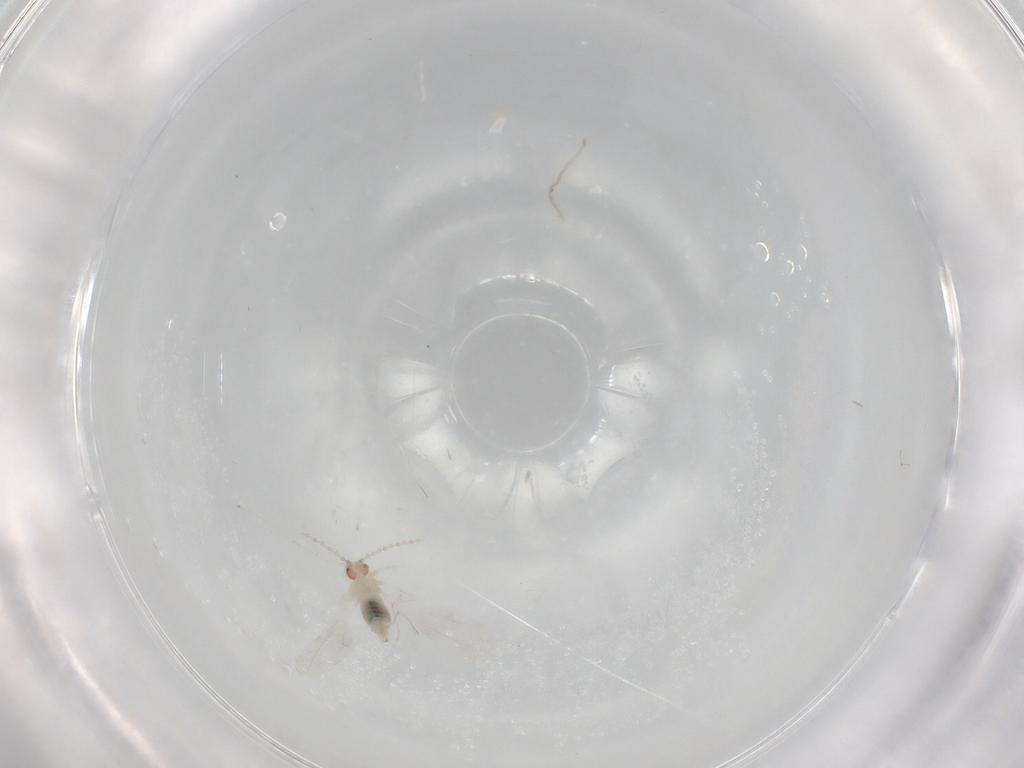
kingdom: Animalia
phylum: Arthropoda
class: Insecta
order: Diptera
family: Cecidomyiidae
